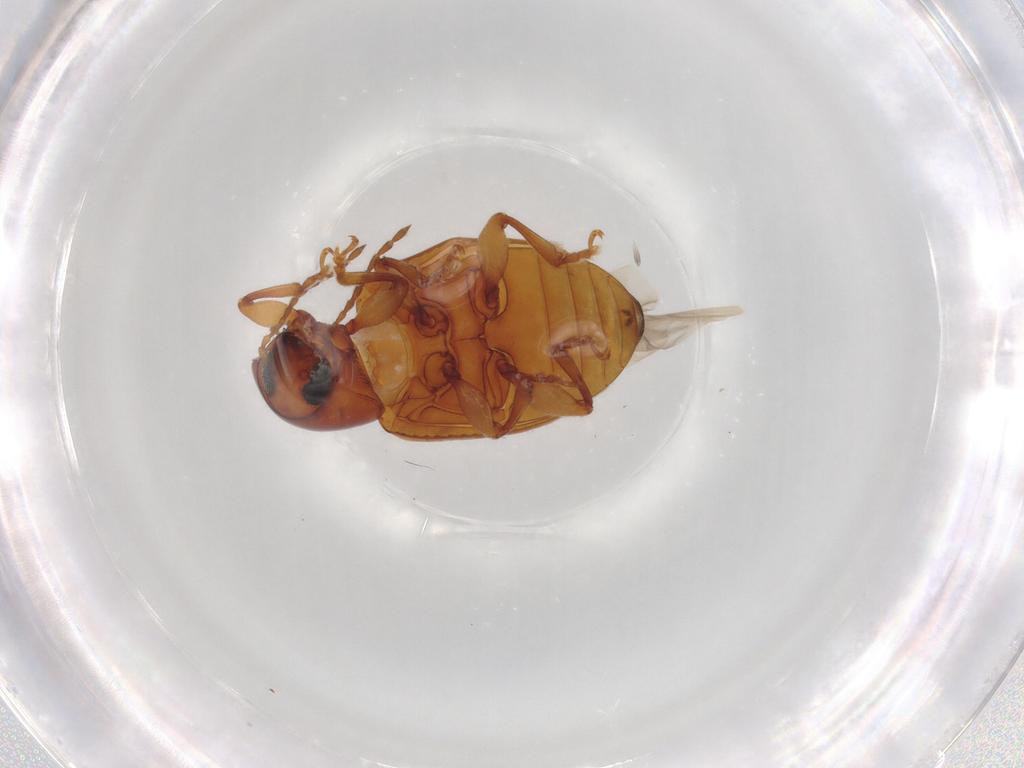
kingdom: Animalia
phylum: Arthropoda
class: Insecta
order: Coleoptera
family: Chrysomelidae
